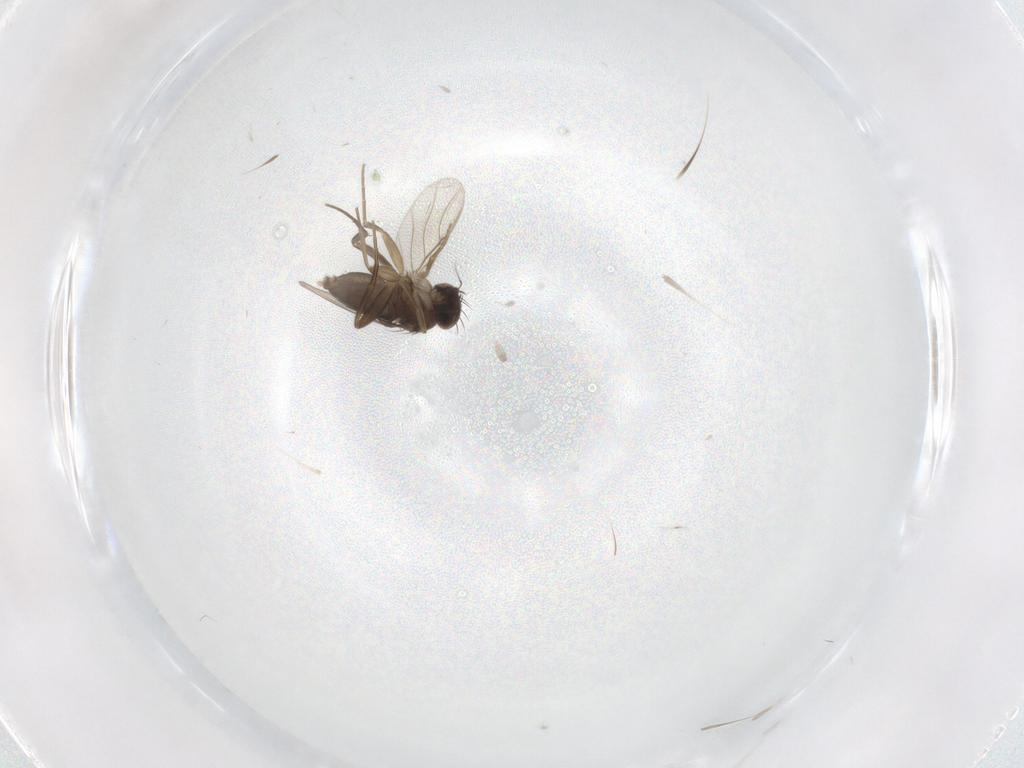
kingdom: Animalia
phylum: Arthropoda
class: Insecta
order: Diptera
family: Phoridae
